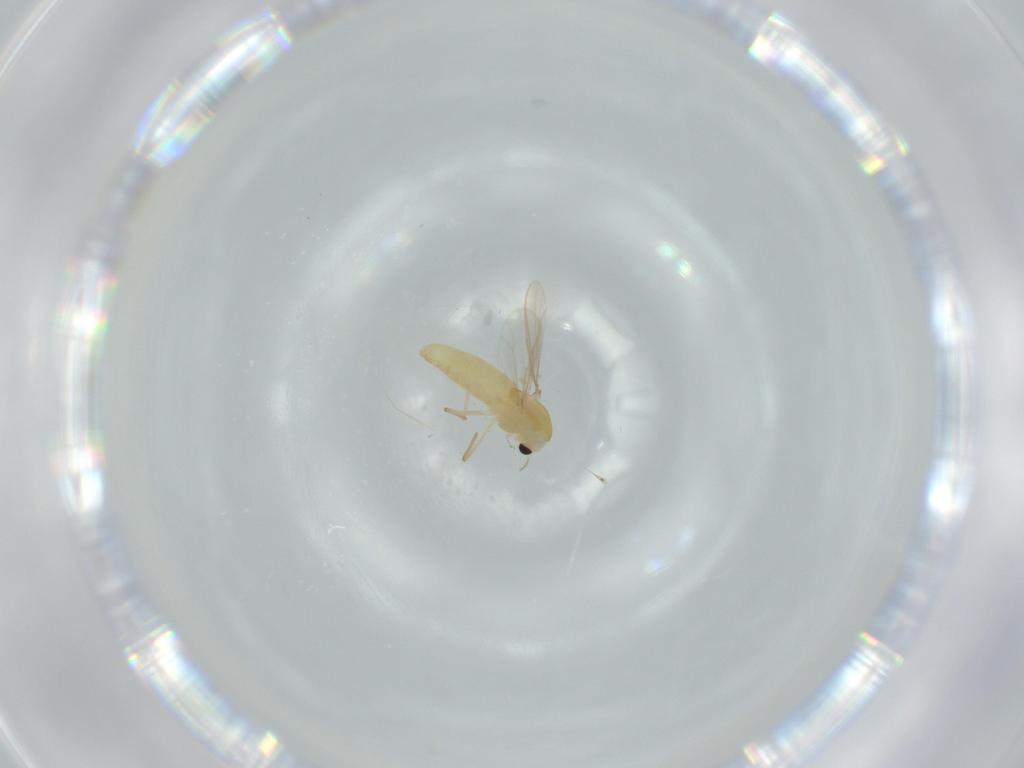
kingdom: Animalia
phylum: Arthropoda
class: Insecta
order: Diptera
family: Chironomidae
